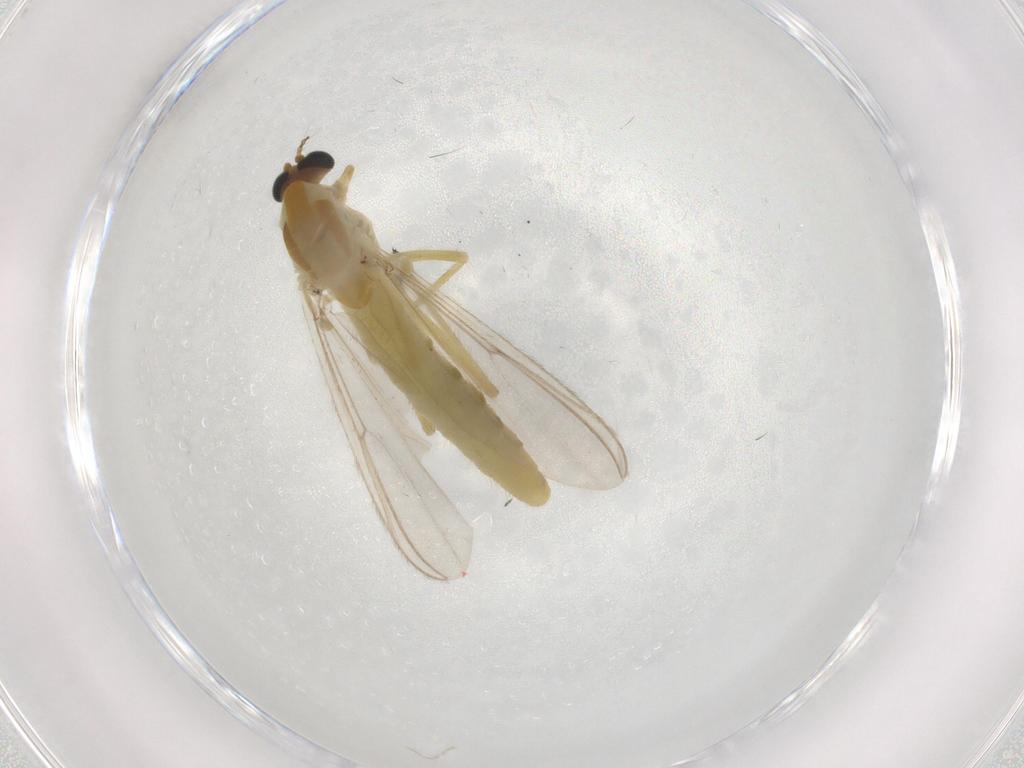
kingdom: Animalia
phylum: Arthropoda
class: Insecta
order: Diptera
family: Chironomidae
